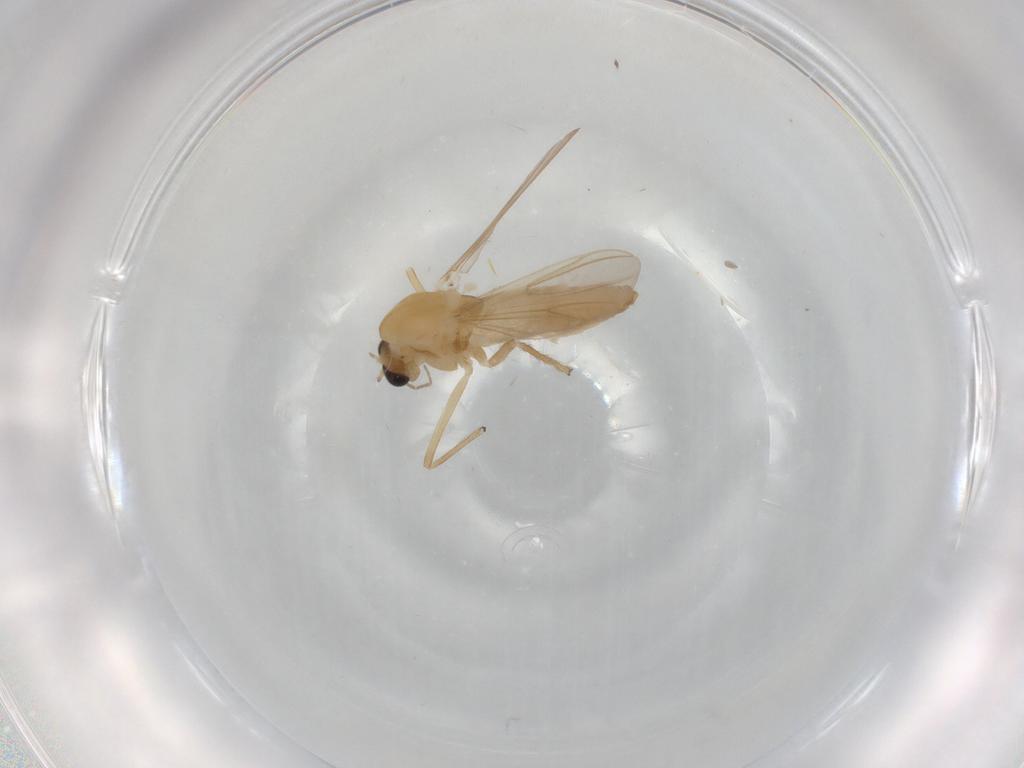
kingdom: Animalia
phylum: Arthropoda
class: Insecta
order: Diptera
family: Chironomidae
